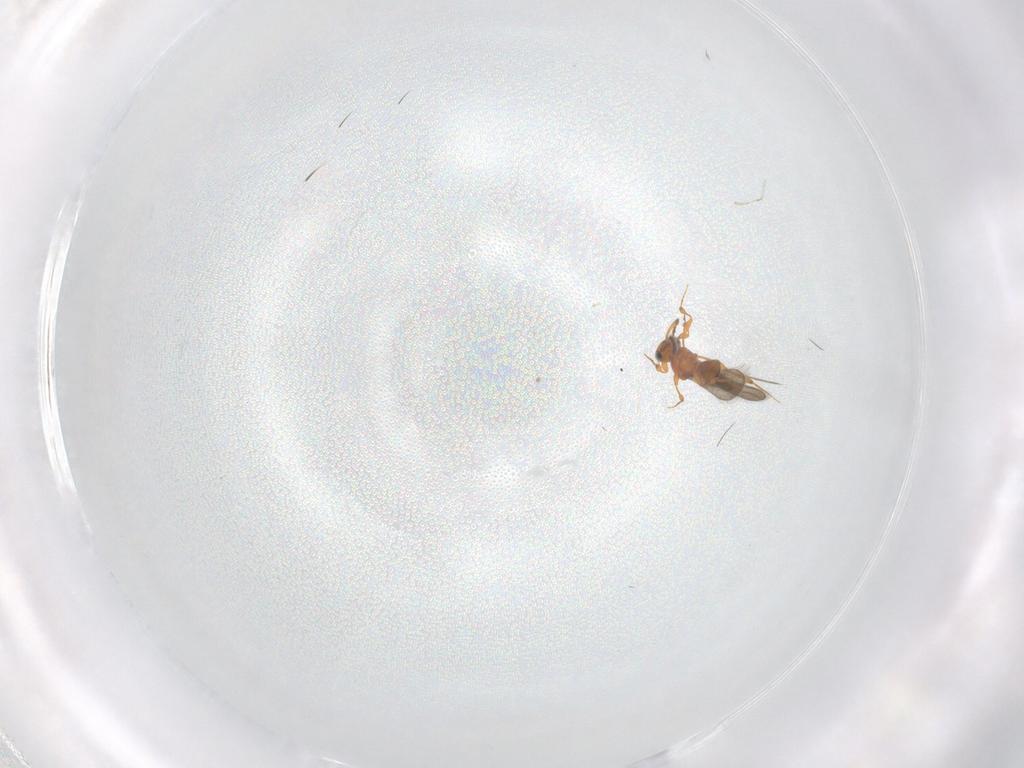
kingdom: Animalia
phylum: Arthropoda
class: Insecta
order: Hymenoptera
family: Platygastridae
